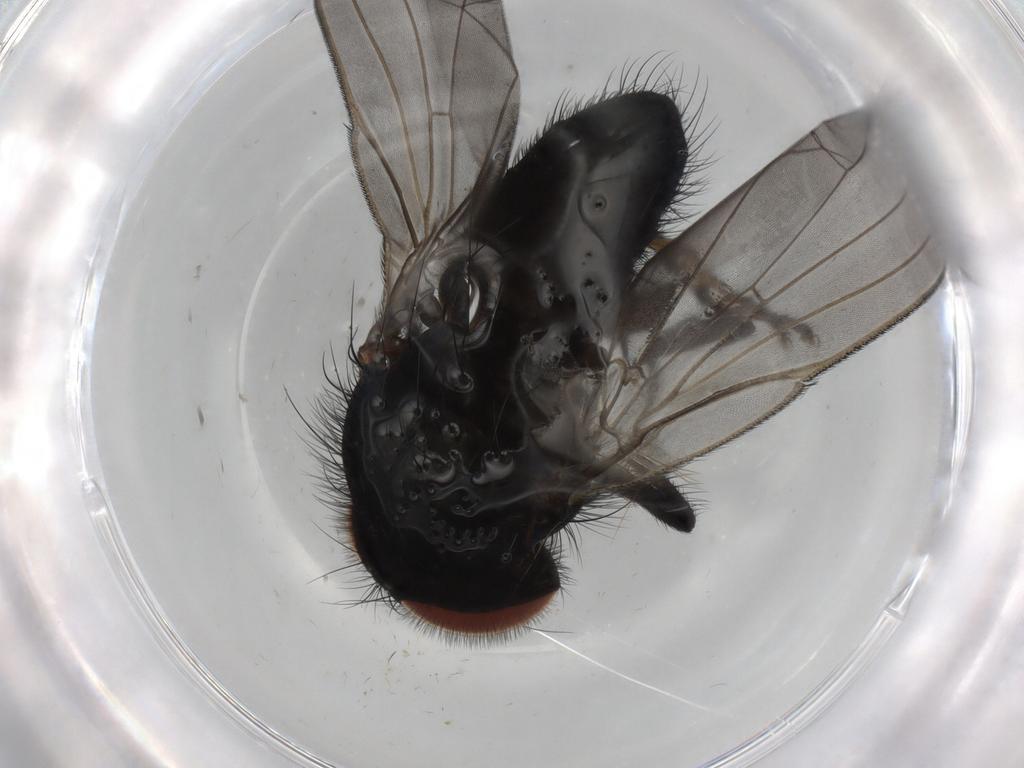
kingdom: Animalia
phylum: Arthropoda
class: Insecta
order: Diptera
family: Lonchaeidae
